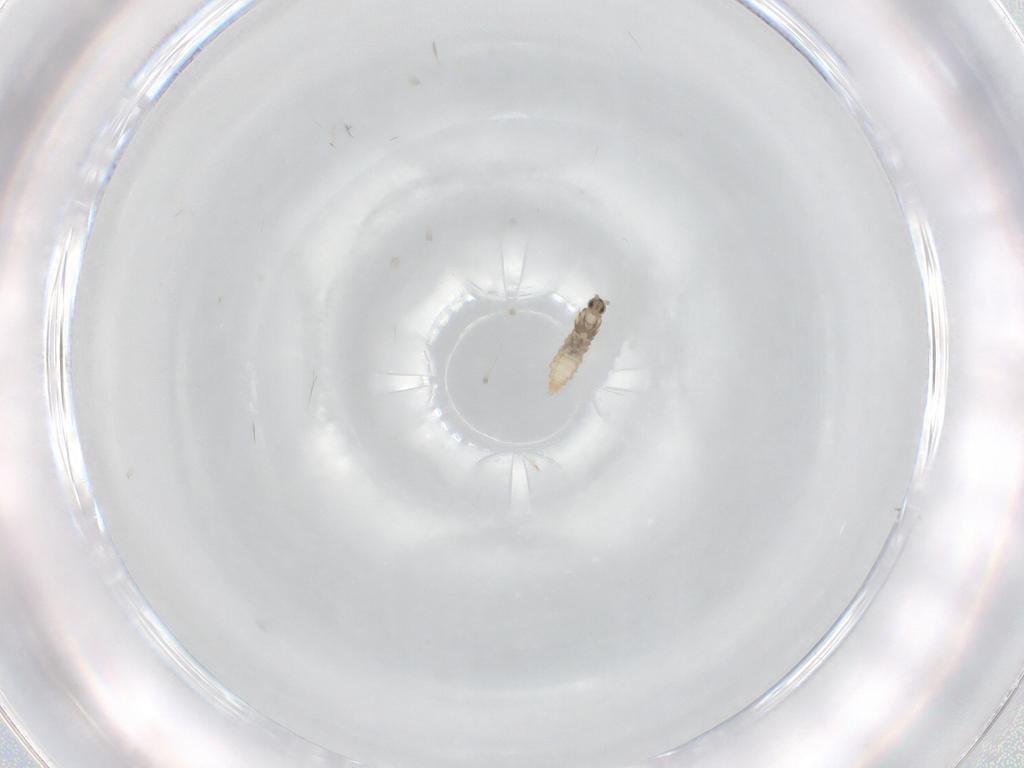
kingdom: Animalia
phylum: Arthropoda
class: Insecta
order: Diptera
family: Cecidomyiidae
